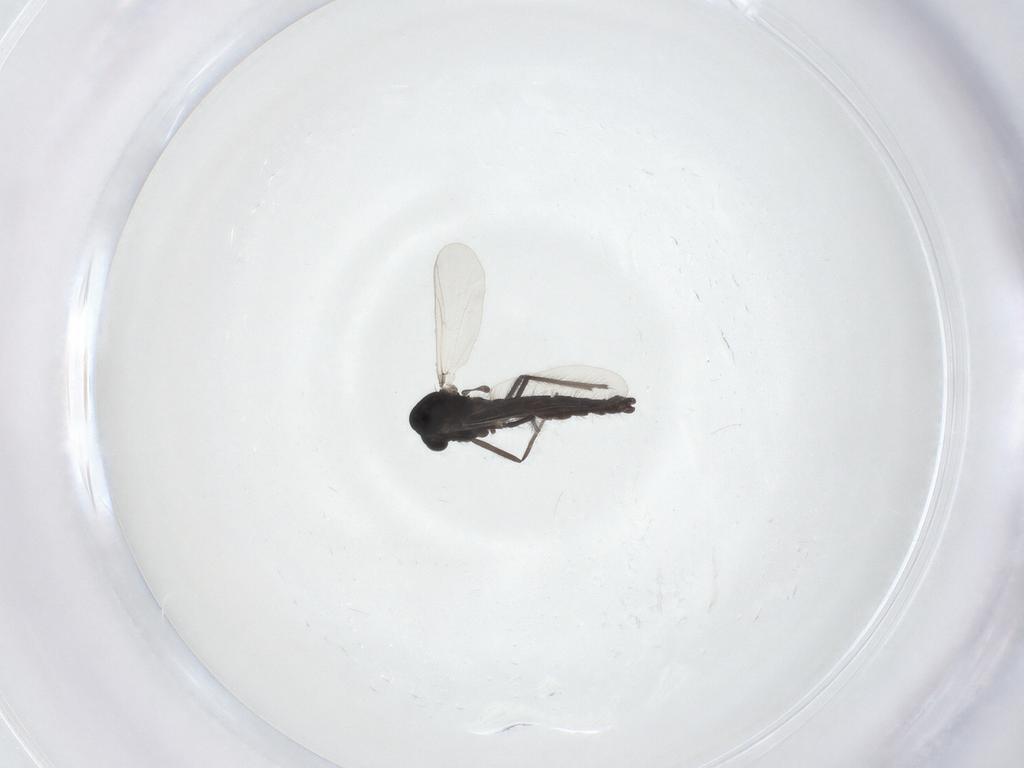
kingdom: Animalia
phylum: Arthropoda
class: Insecta
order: Diptera
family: Chironomidae
